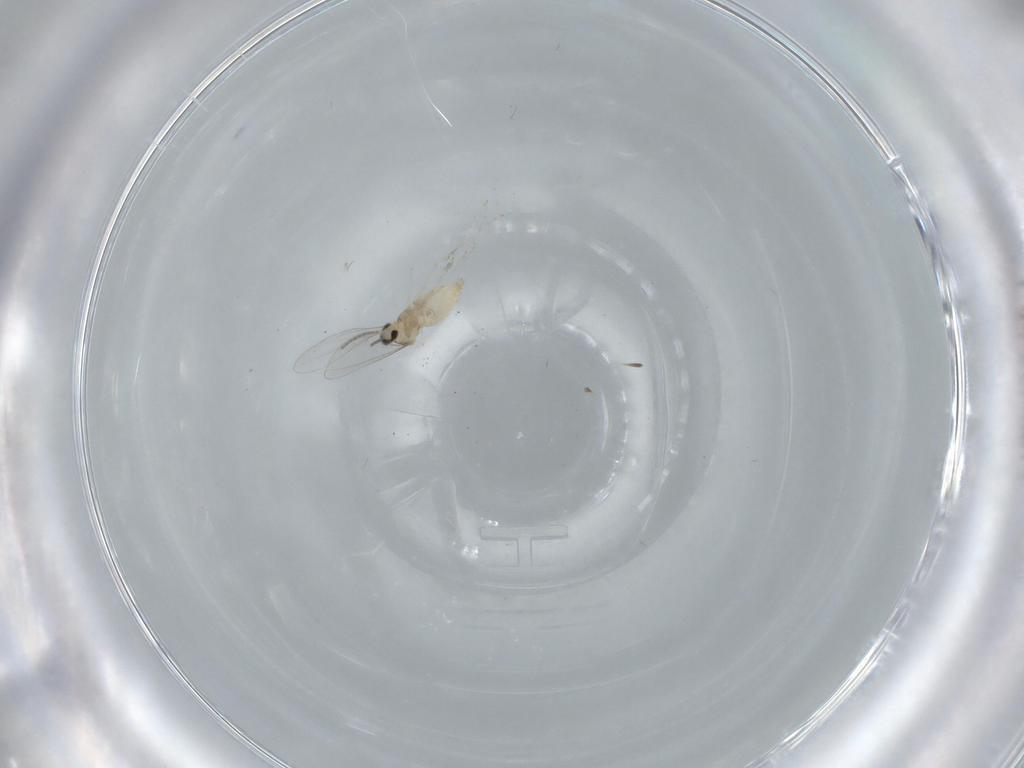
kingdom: Animalia
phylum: Arthropoda
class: Insecta
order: Diptera
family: Cecidomyiidae
